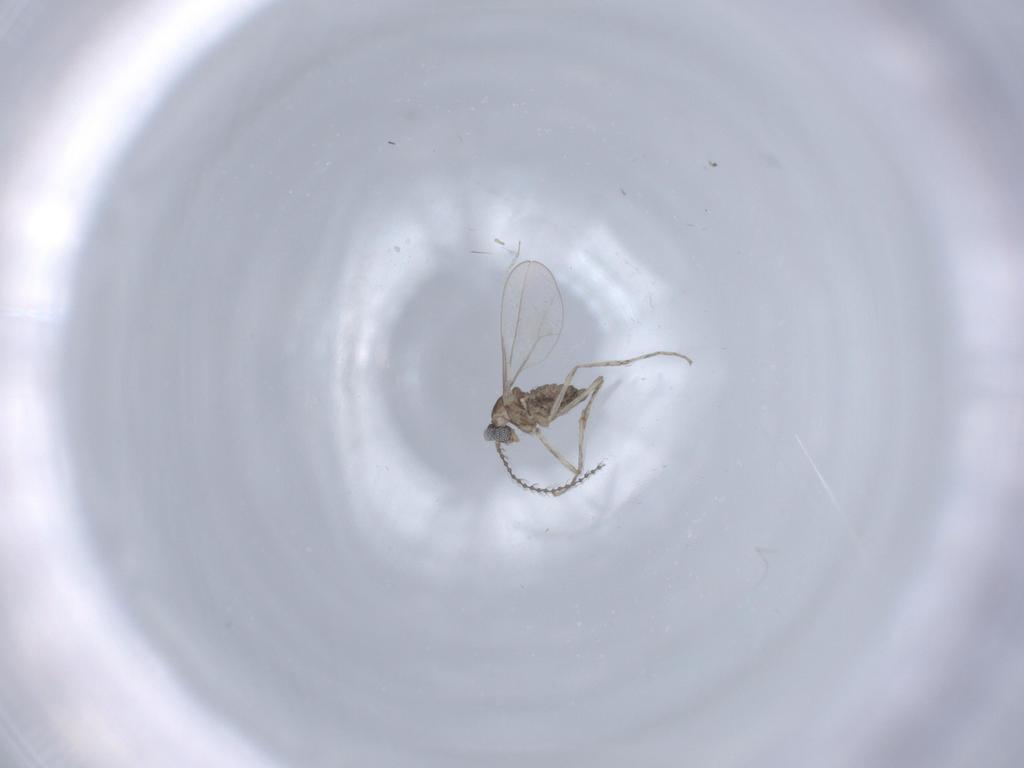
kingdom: Animalia
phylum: Arthropoda
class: Insecta
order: Diptera
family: Cecidomyiidae
